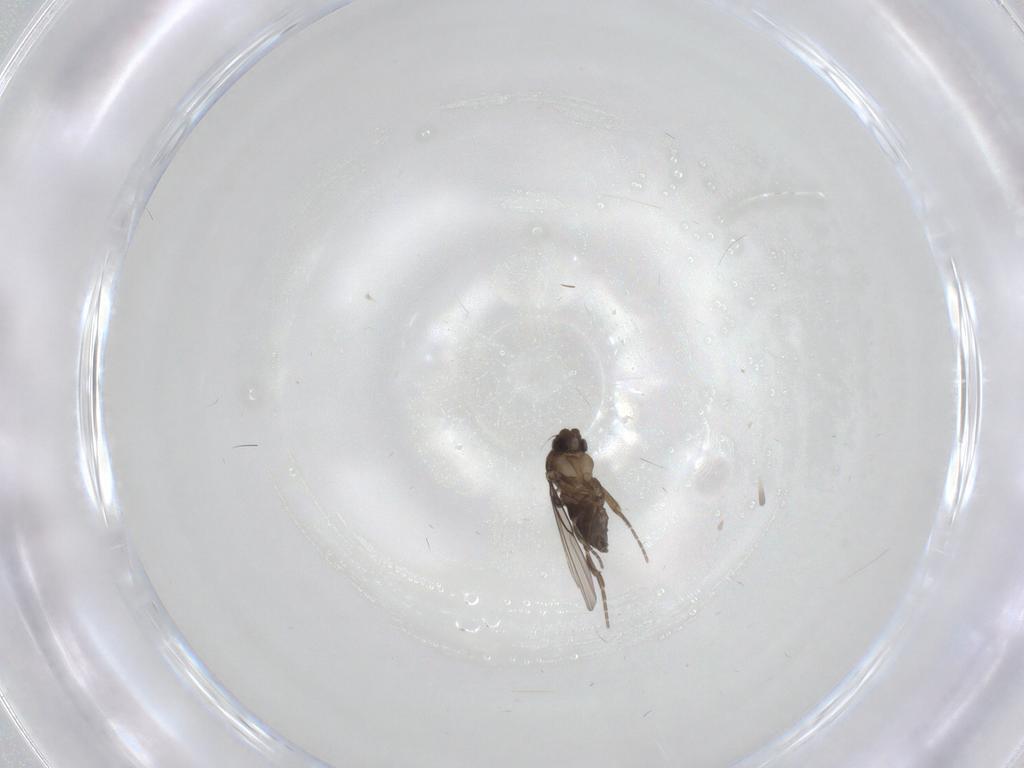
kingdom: Animalia
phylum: Arthropoda
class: Insecta
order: Diptera
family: Phoridae
